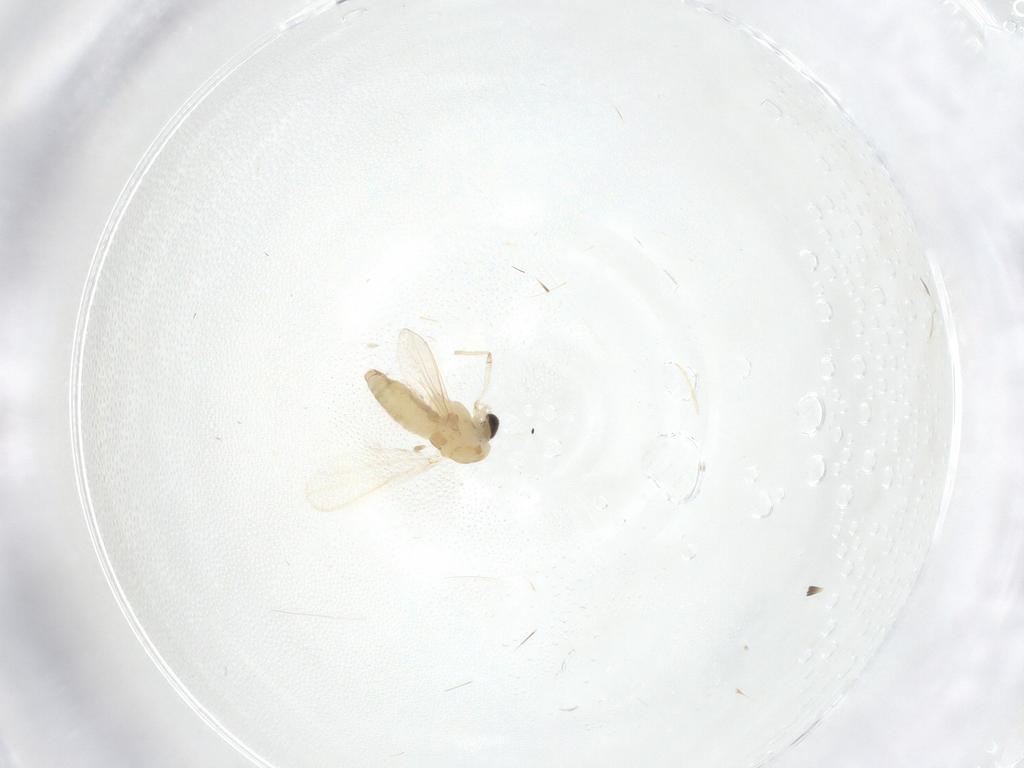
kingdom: Animalia
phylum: Arthropoda
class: Insecta
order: Diptera
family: Chironomidae
